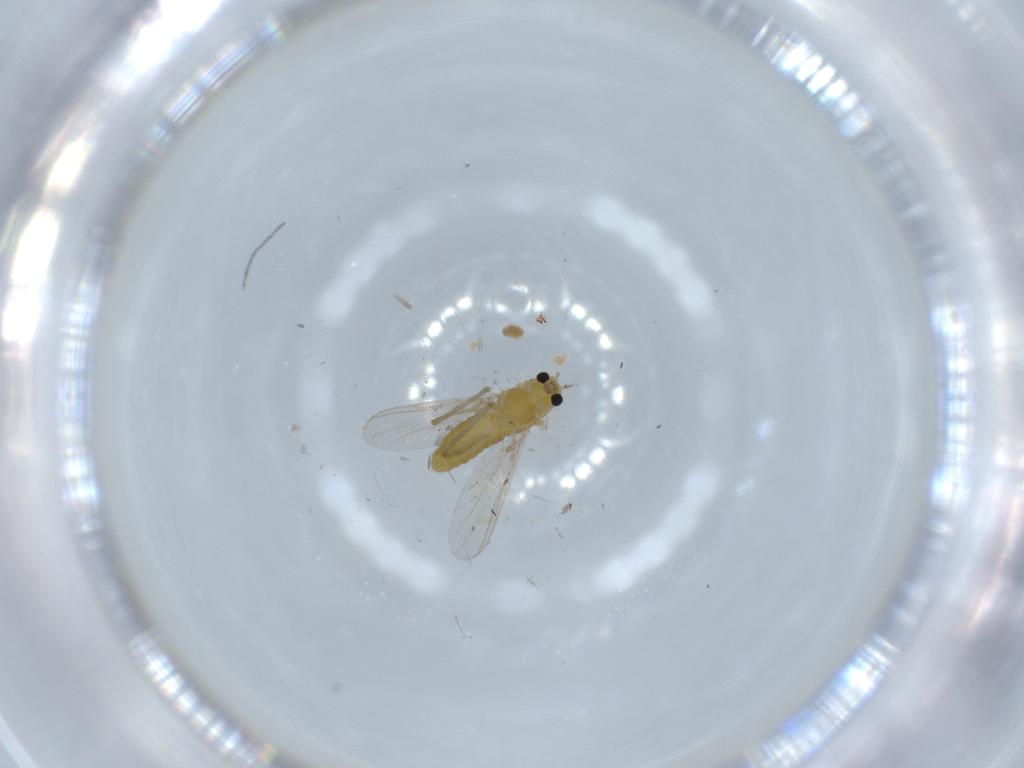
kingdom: Animalia
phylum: Arthropoda
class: Insecta
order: Diptera
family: Chironomidae
